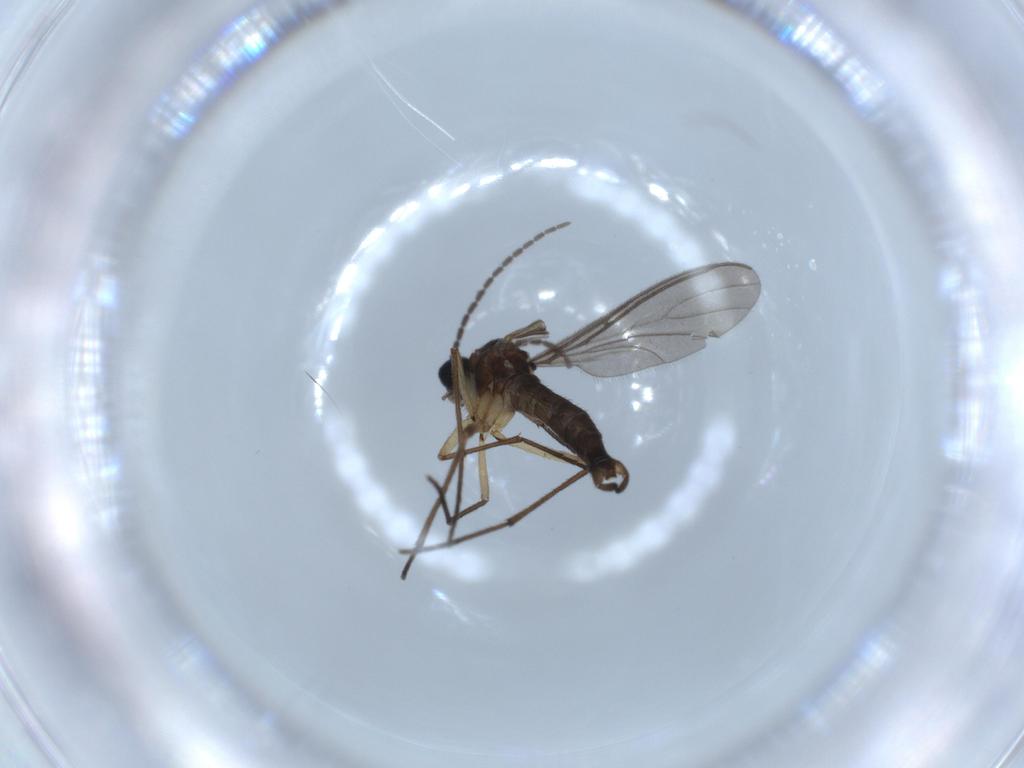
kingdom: Animalia
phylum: Arthropoda
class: Insecta
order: Diptera
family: Sciaridae
